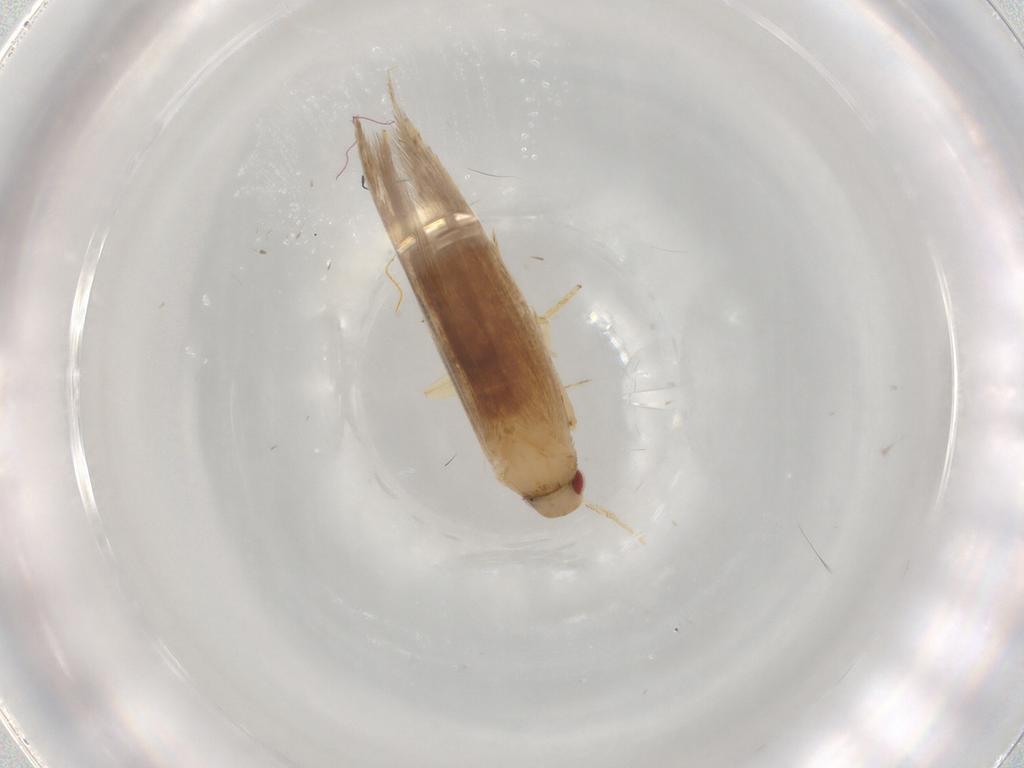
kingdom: Animalia
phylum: Arthropoda
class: Insecta
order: Lepidoptera
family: Cosmopterigidae
